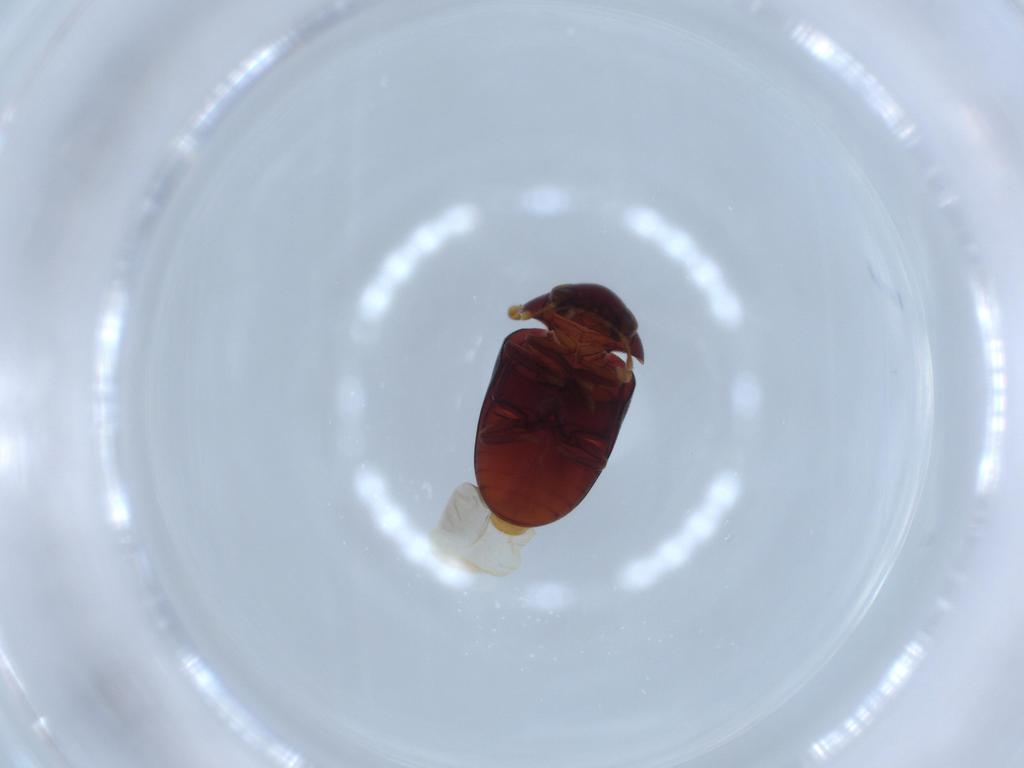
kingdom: Animalia
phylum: Arthropoda
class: Insecta
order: Coleoptera
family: Ptinidae
